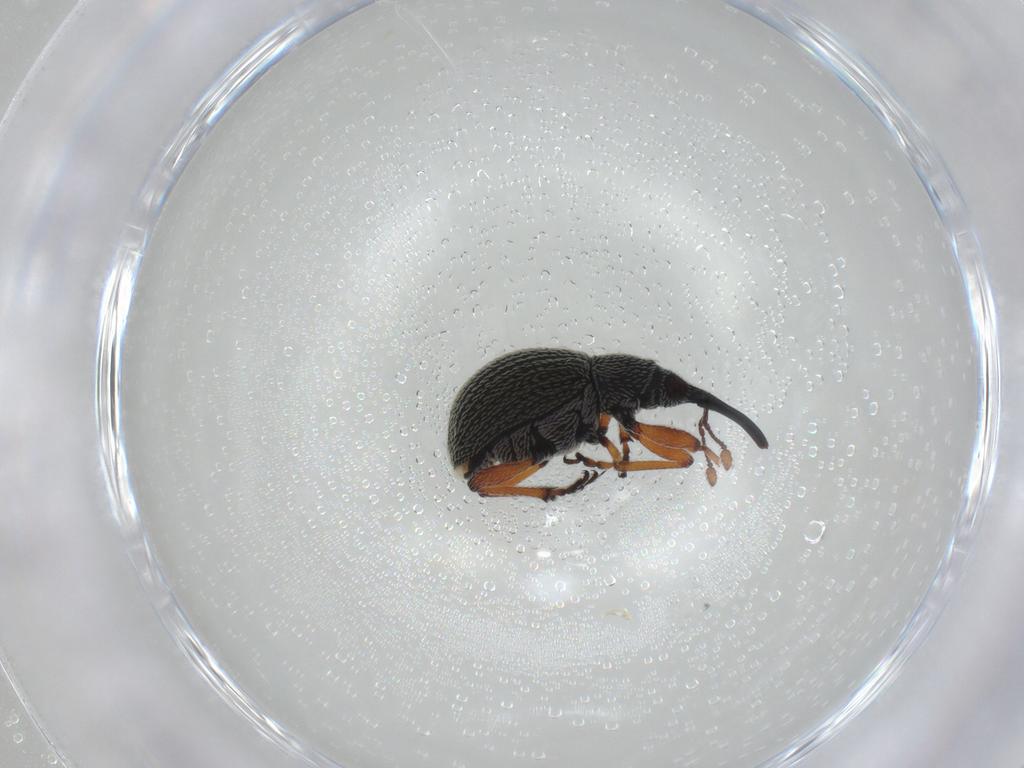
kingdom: Animalia
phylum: Arthropoda
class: Insecta
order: Coleoptera
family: Brentidae
